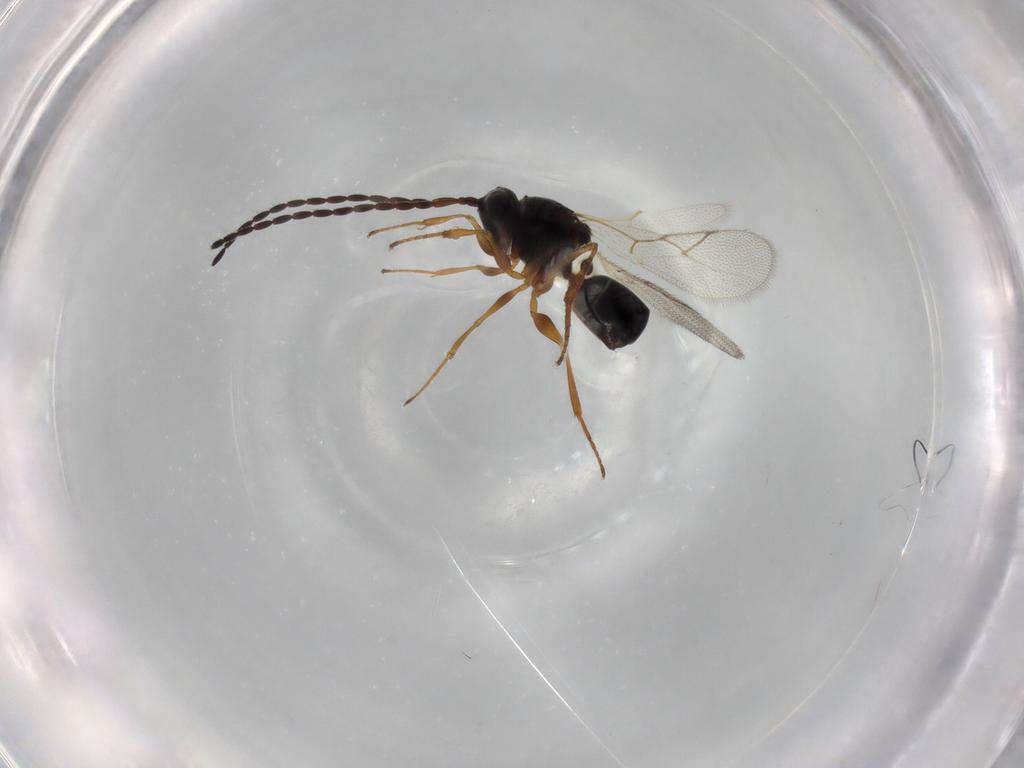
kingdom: Animalia
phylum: Arthropoda
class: Insecta
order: Hymenoptera
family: Figitidae
